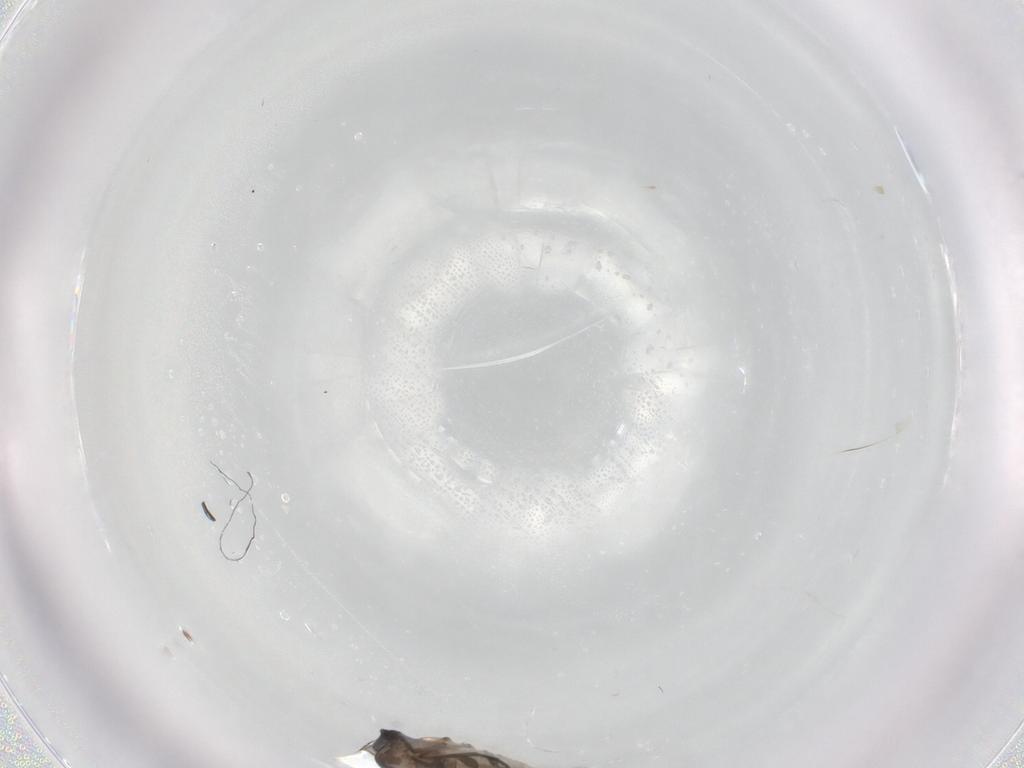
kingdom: Animalia
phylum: Arthropoda
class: Insecta
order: Diptera
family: Sciaridae
